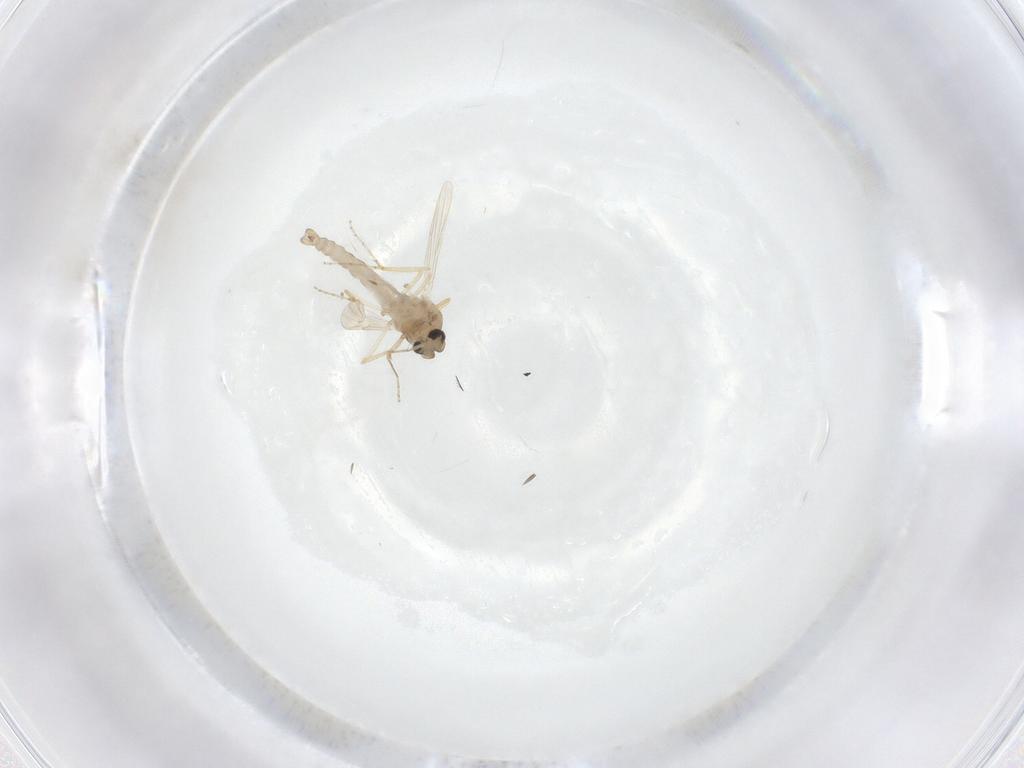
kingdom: Animalia
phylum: Arthropoda
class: Insecta
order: Diptera
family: Ceratopogonidae
